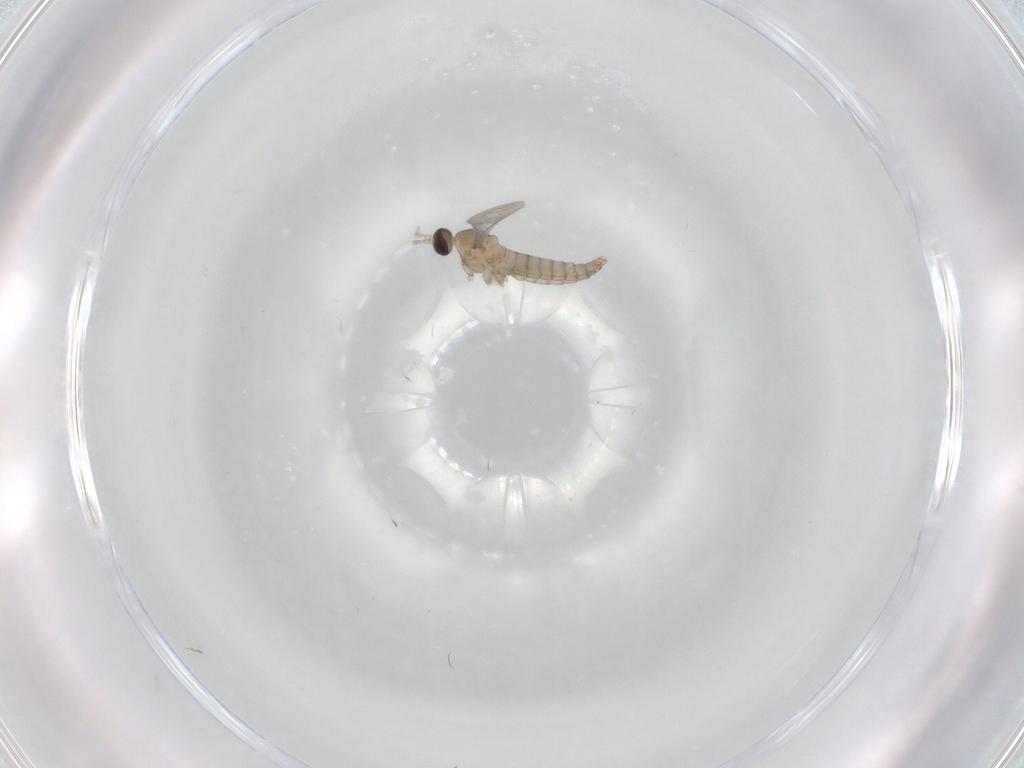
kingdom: Animalia
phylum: Arthropoda
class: Insecta
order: Diptera
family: Cecidomyiidae
